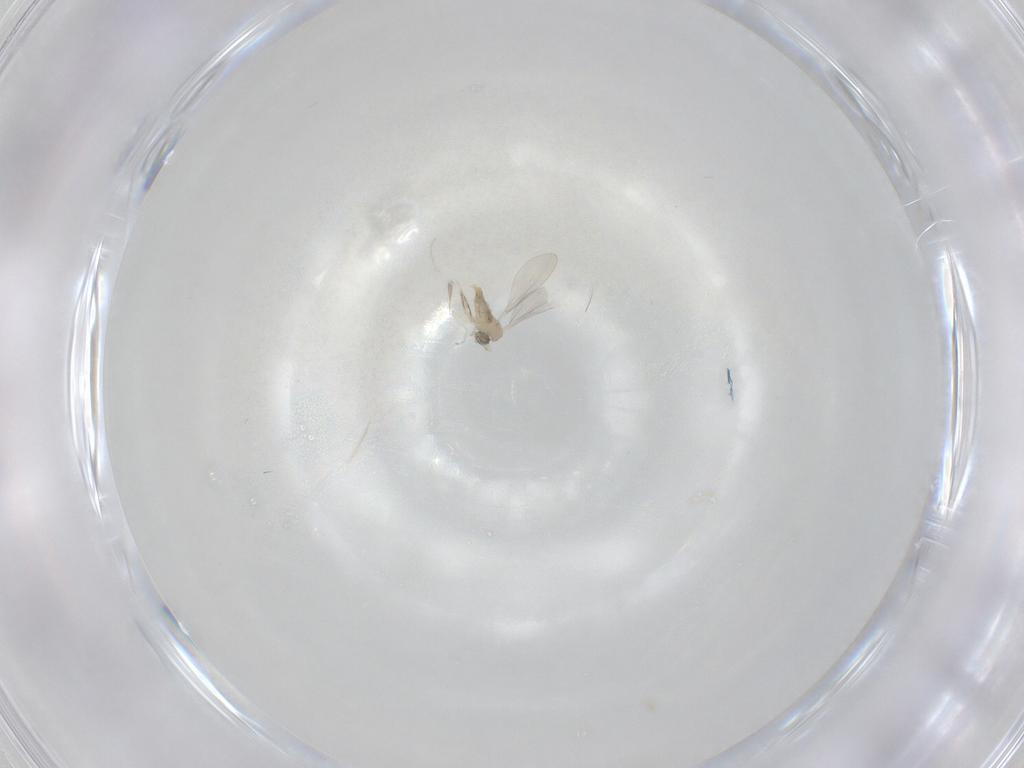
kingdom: Animalia
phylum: Arthropoda
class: Insecta
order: Diptera
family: Cecidomyiidae
